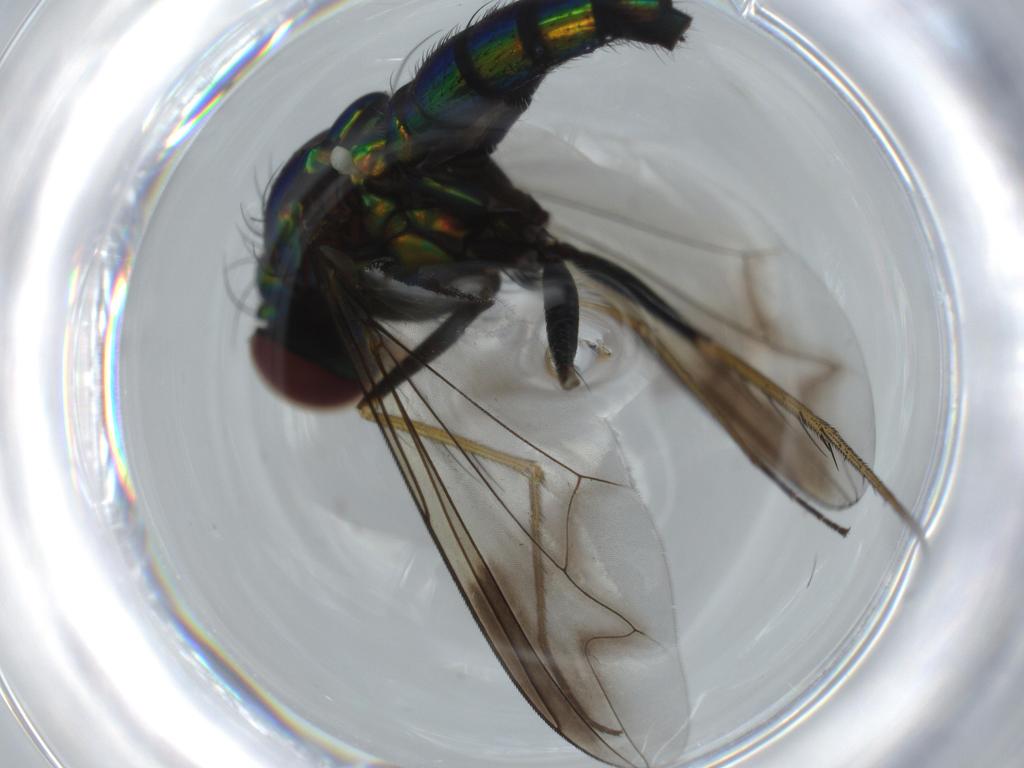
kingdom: Animalia
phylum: Arthropoda
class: Insecta
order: Diptera
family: Dolichopodidae
